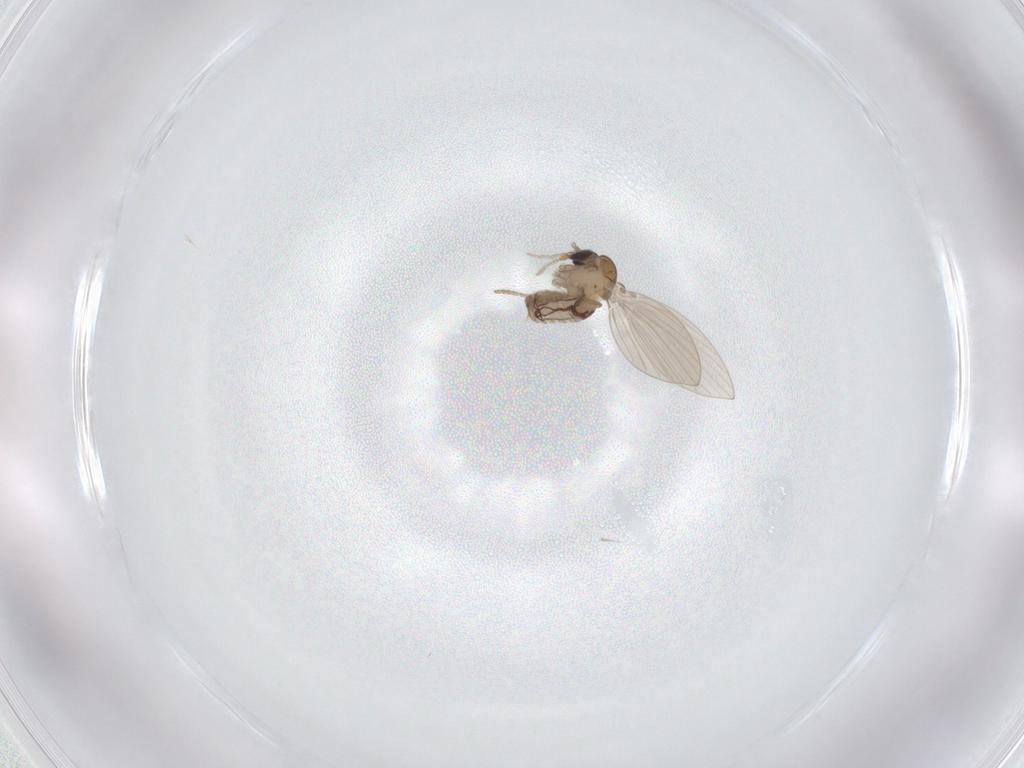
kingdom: Animalia
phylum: Arthropoda
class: Insecta
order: Diptera
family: Psychodidae
